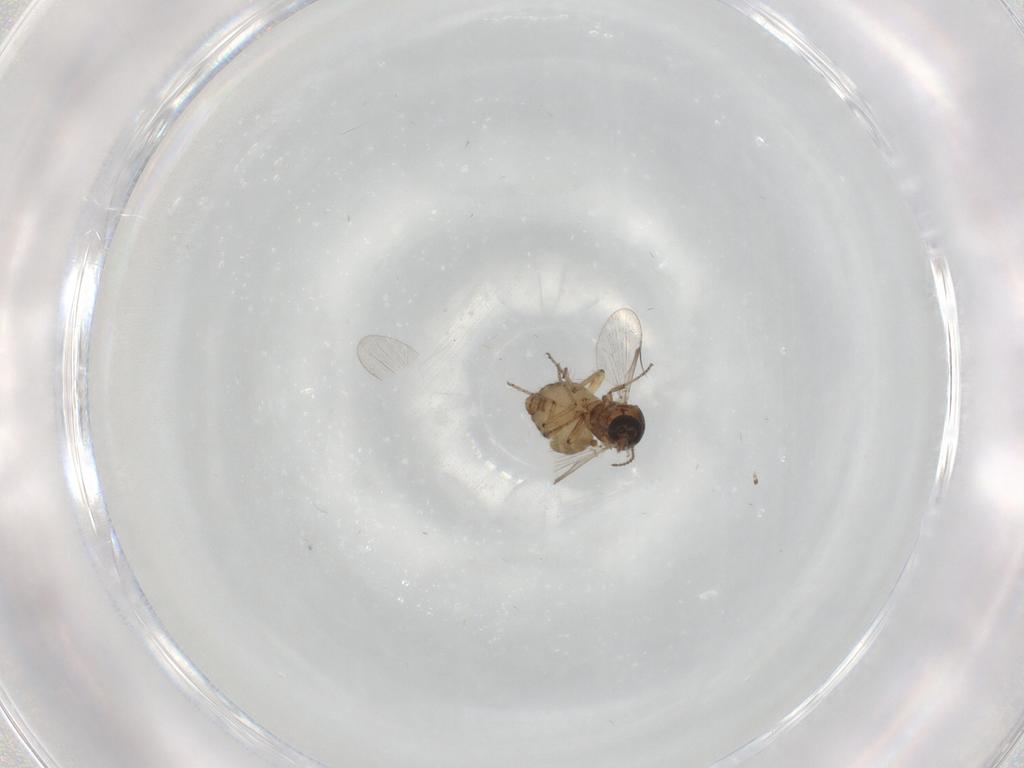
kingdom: Animalia
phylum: Arthropoda
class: Insecta
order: Diptera
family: Ceratopogonidae
